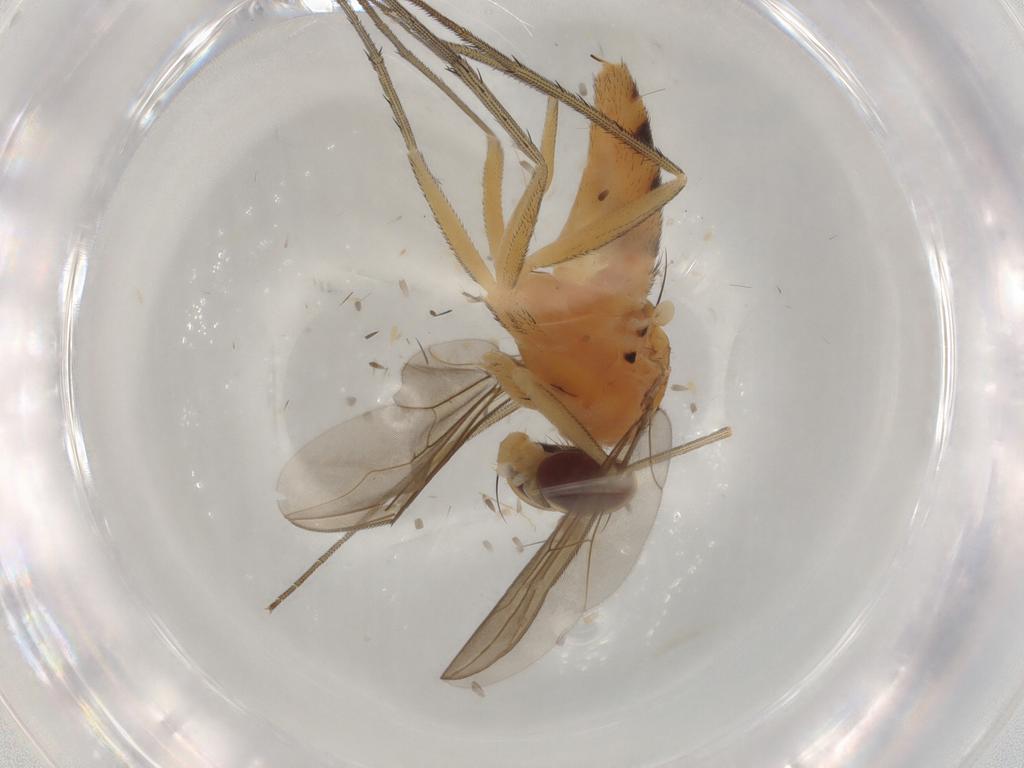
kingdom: Animalia
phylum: Arthropoda
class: Insecta
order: Diptera
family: Dolichopodidae
